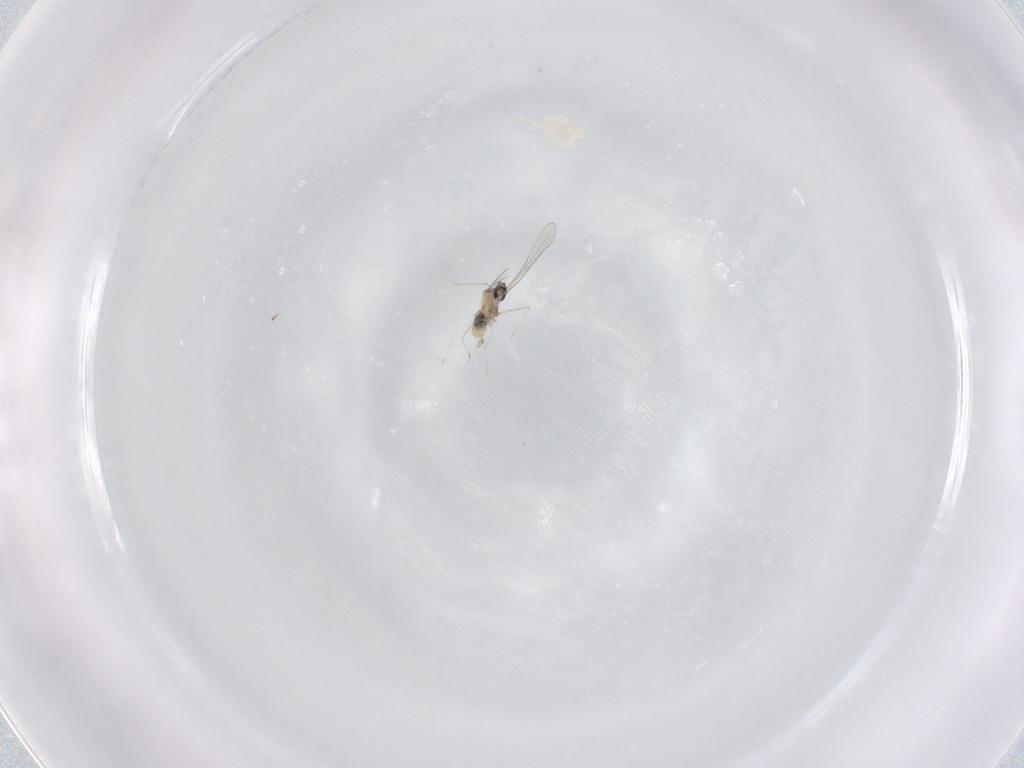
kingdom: Animalia
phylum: Arthropoda
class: Insecta
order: Diptera
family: Cecidomyiidae
